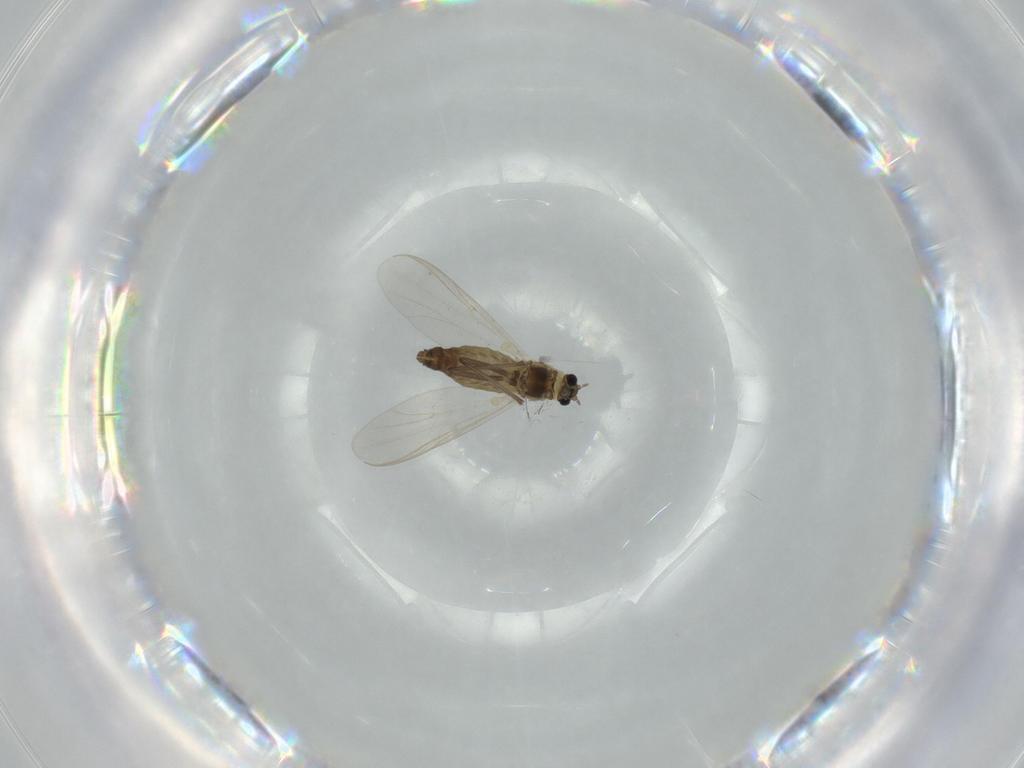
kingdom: Animalia
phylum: Arthropoda
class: Insecta
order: Diptera
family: Chironomidae
